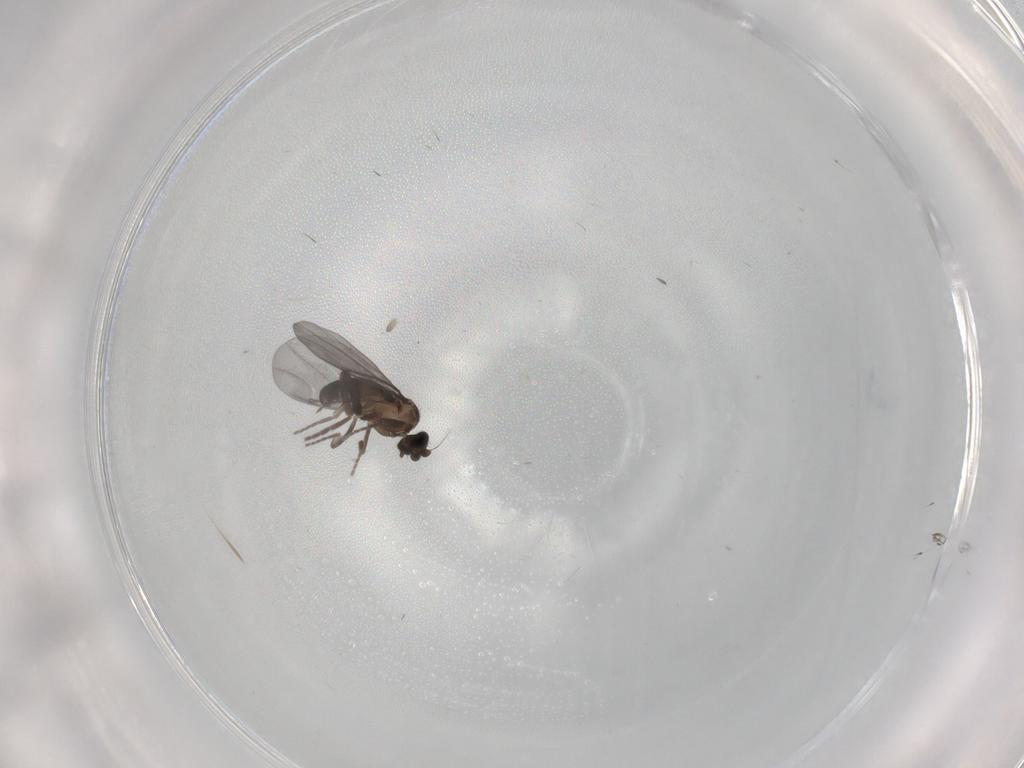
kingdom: Animalia
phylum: Arthropoda
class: Insecta
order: Diptera
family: Phoridae
